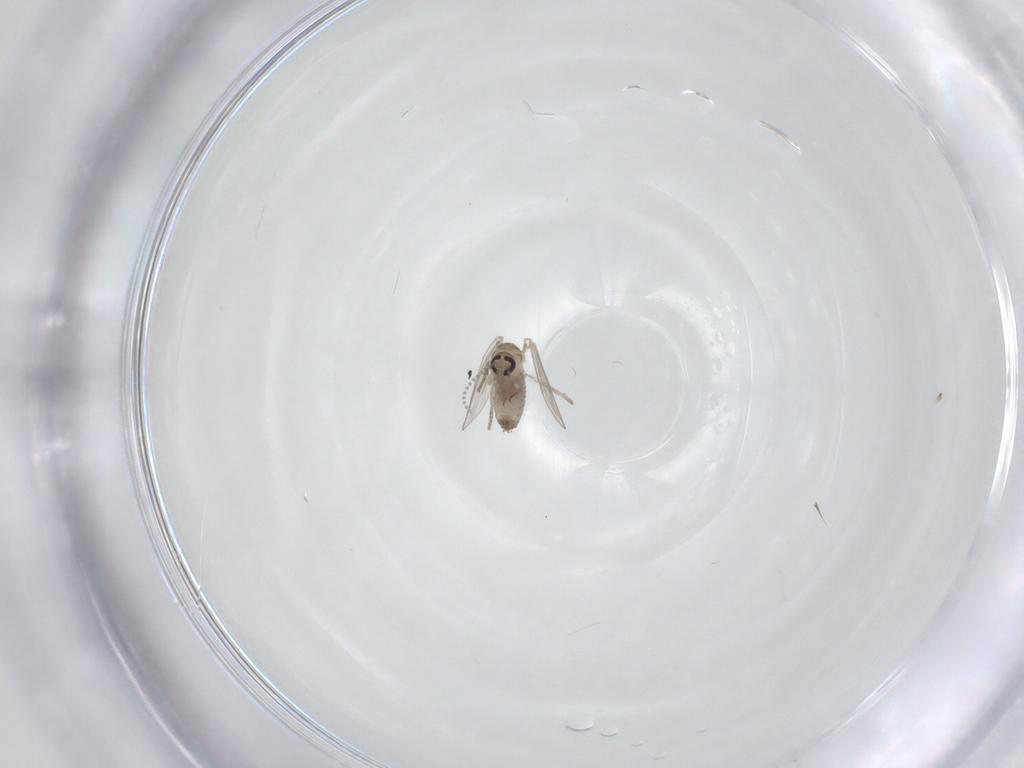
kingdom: Animalia
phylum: Arthropoda
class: Insecta
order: Diptera
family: Psychodidae
